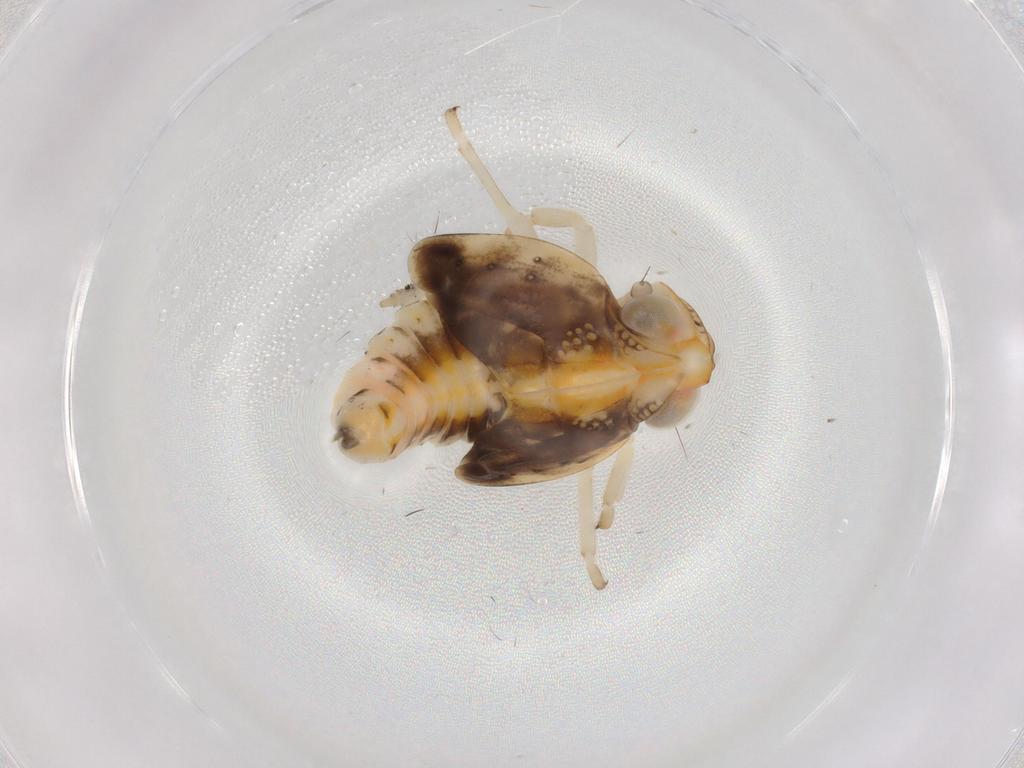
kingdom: Animalia
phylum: Arthropoda
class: Insecta
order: Hemiptera
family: Nogodinidae
